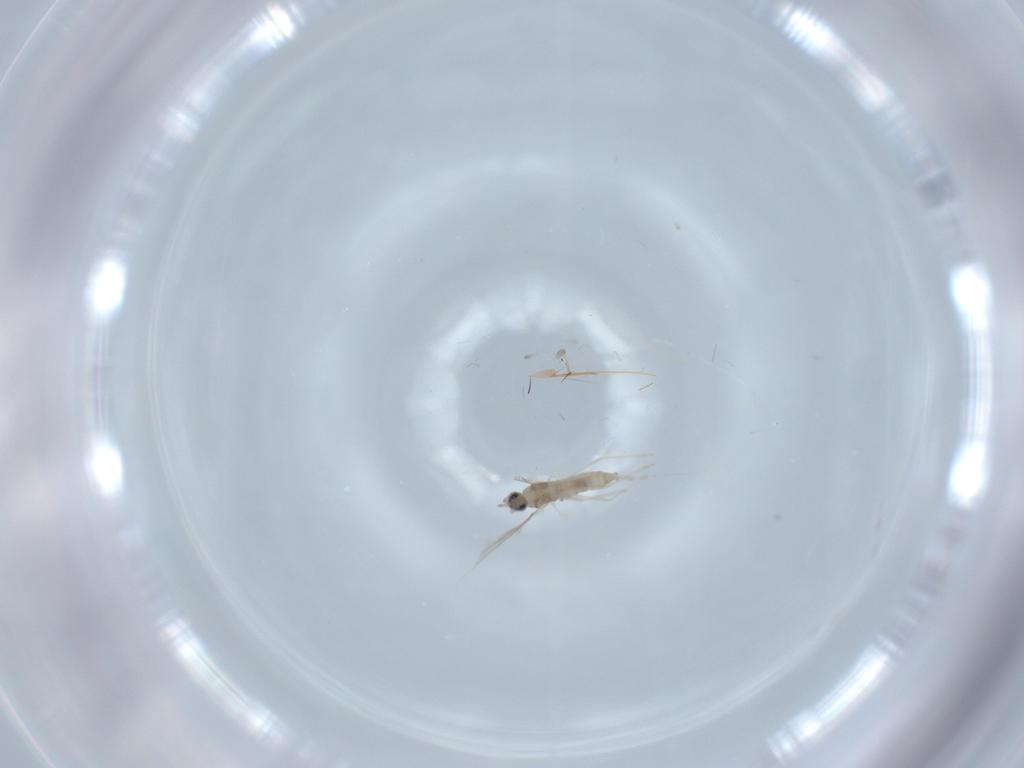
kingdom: Animalia
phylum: Arthropoda
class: Insecta
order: Diptera
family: Cecidomyiidae
